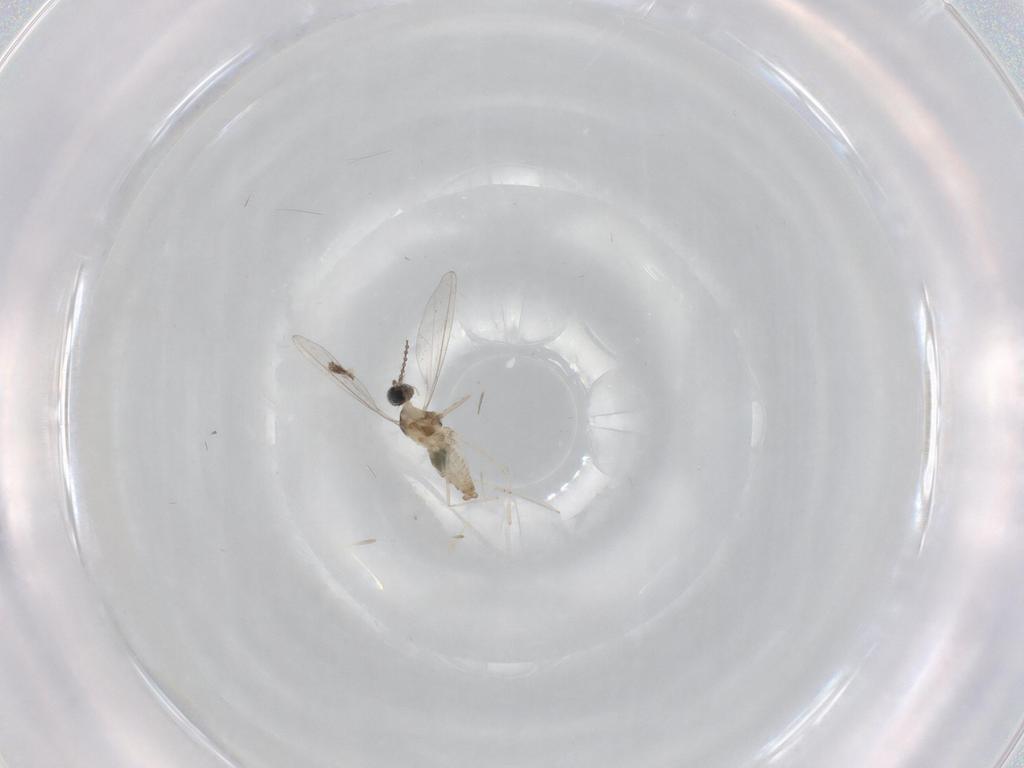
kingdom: Animalia
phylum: Arthropoda
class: Insecta
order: Diptera
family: Cecidomyiidae
